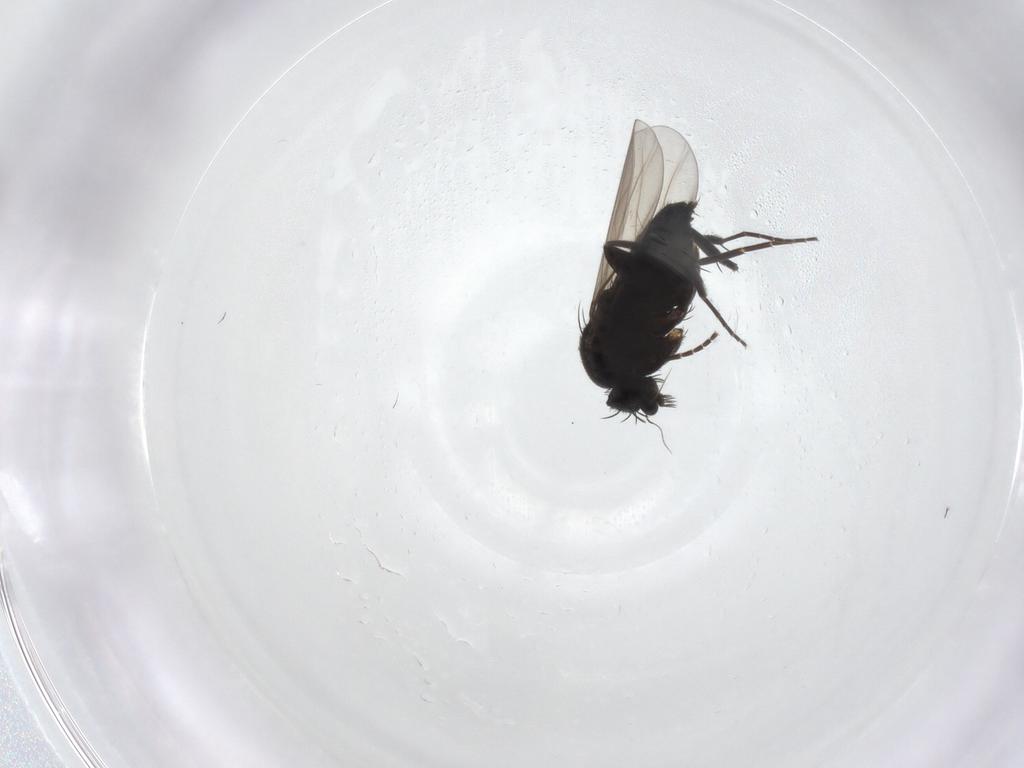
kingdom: Animalia
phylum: Arthropoda
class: Insecta
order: Diptera
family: Phoridae
